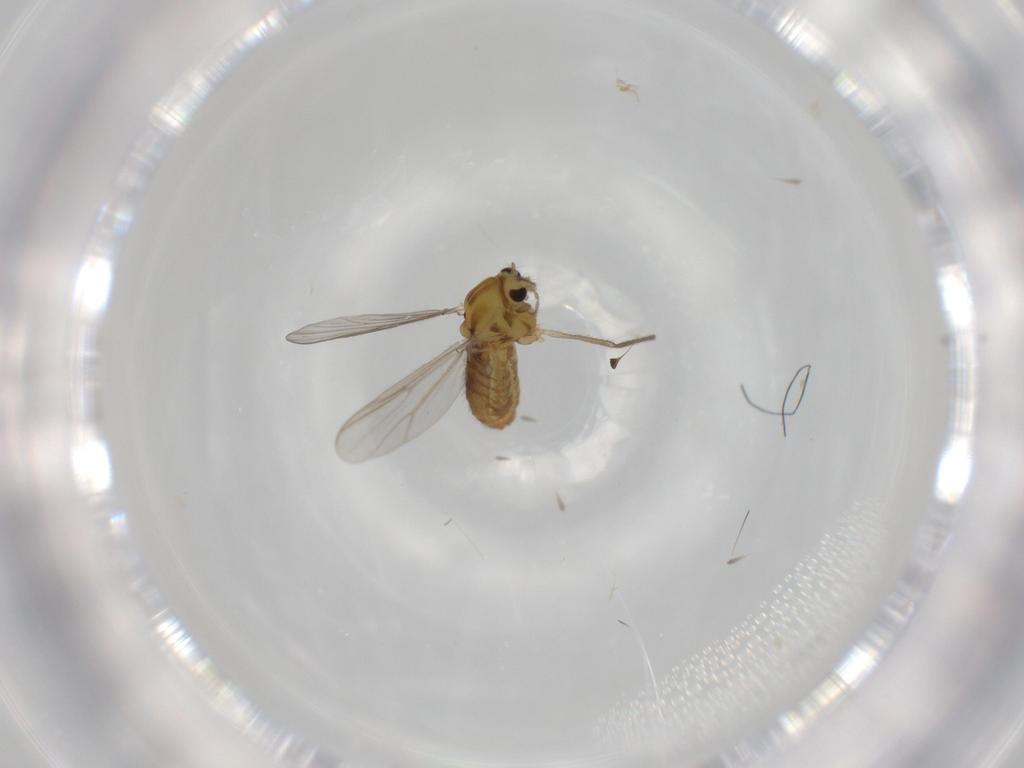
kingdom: Animalia
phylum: Arthropoda
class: Insecta
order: Diptera
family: Chironomidae
